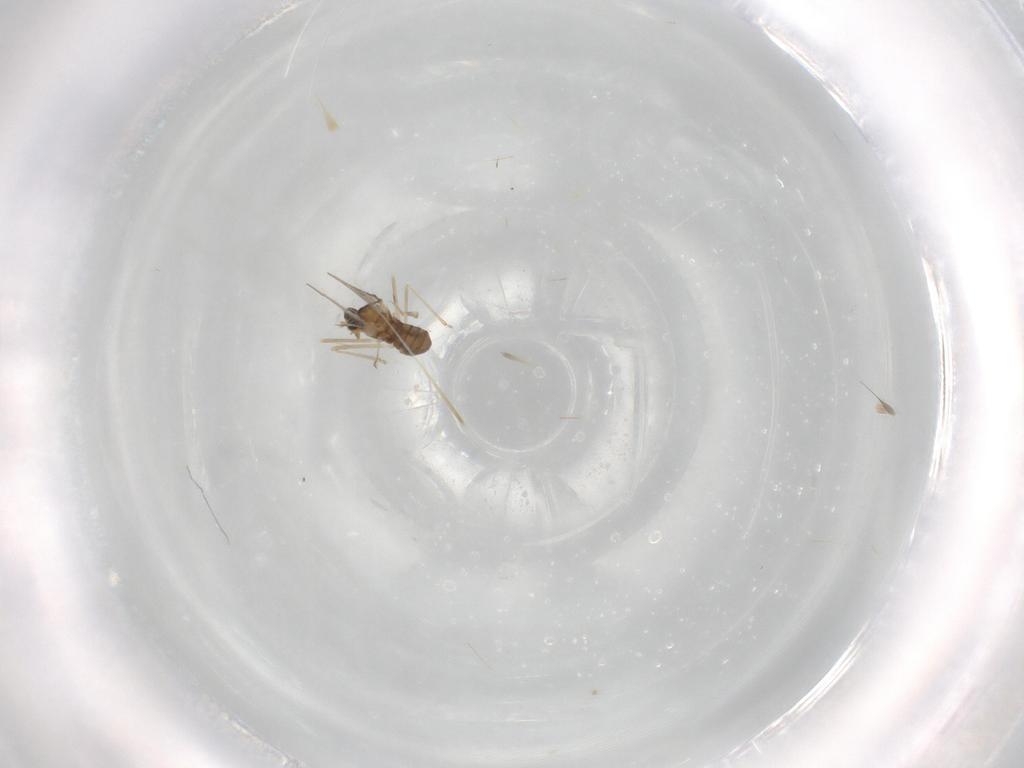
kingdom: Animalia
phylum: Arthropoda
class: Insecta
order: Diptera
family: Cecidomyiidae
